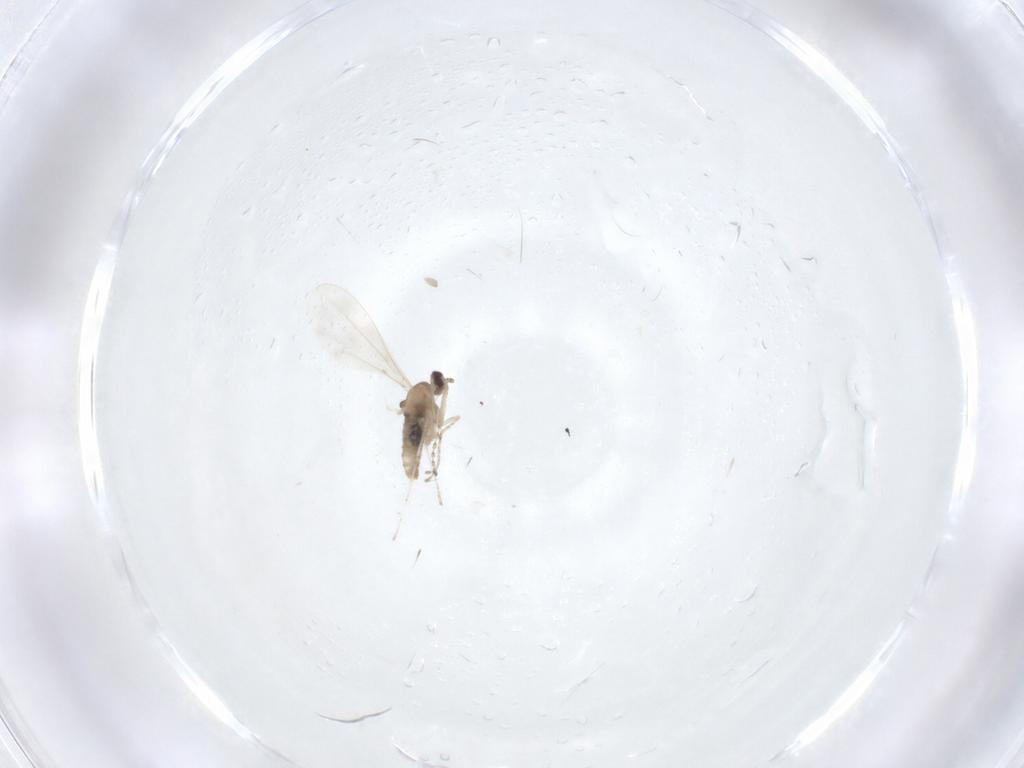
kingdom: Animalia
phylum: Arthropoda
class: Insecta
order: Diptera
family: Cecidomyiidae
